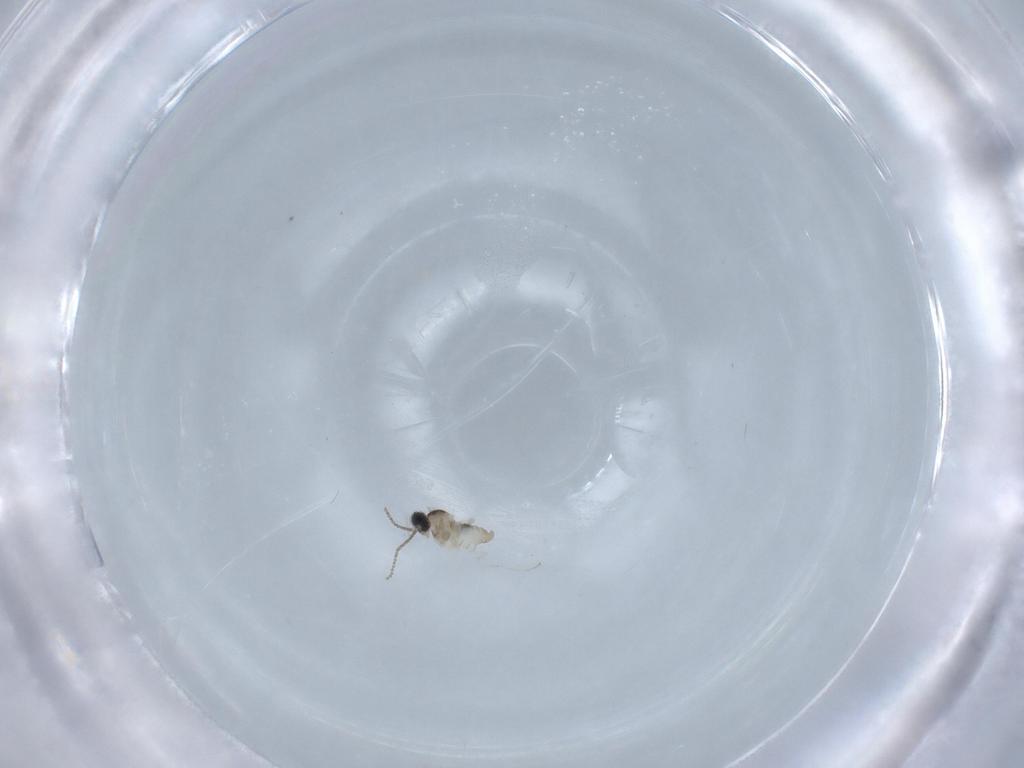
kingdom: Animalia
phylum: Arthropoda
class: Insecta
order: Diptera
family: Cecidomyiidae
